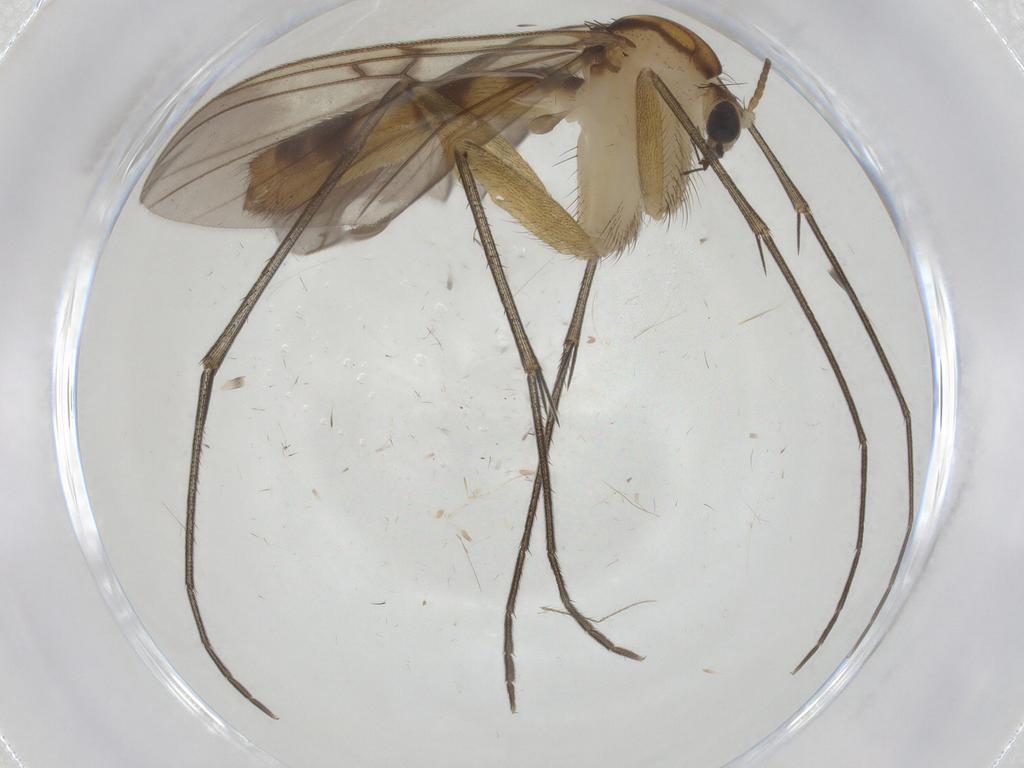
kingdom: Animalia
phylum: Arthropoda
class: Insecta
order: Diptera
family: Mycetophilidae
